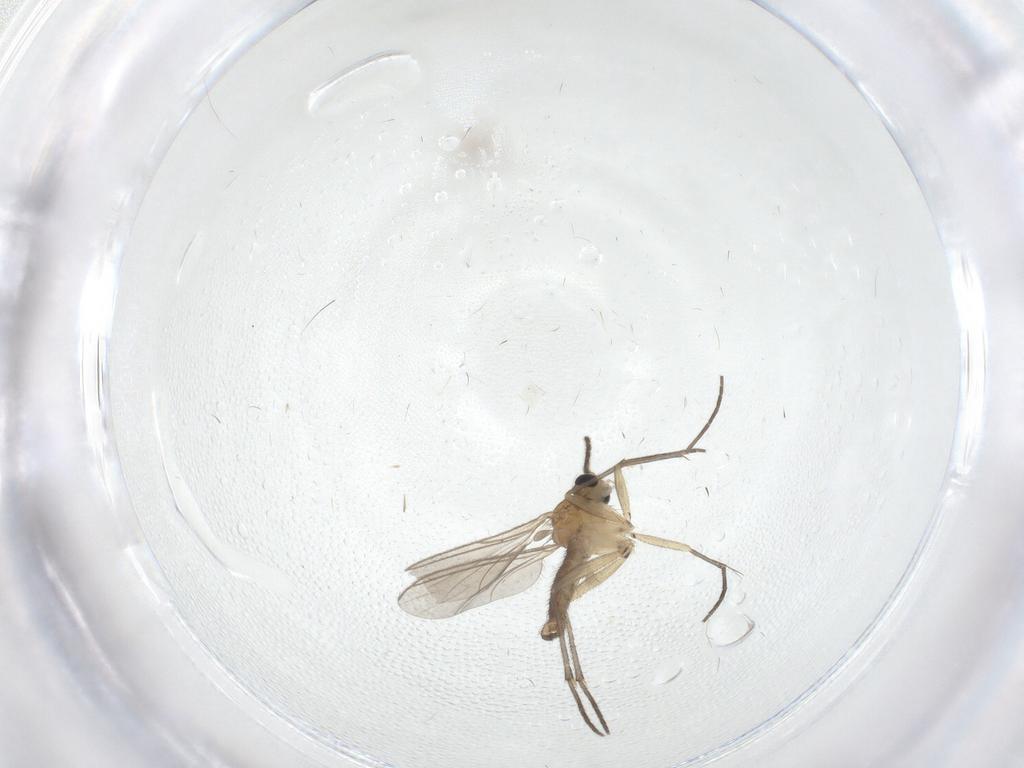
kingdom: Animalia
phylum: Arthropoda
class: Insecta
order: Diptera
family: Sciaridae
